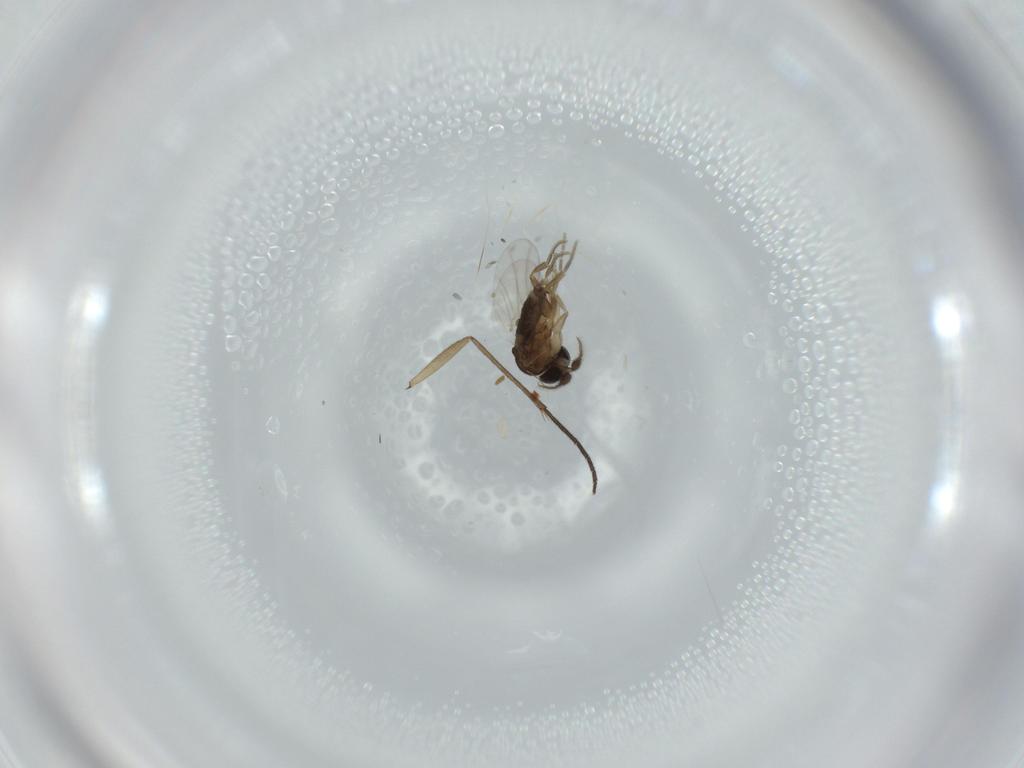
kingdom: Animalia
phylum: Arthropoda
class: Insecta
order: Diptera
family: Phoridae
